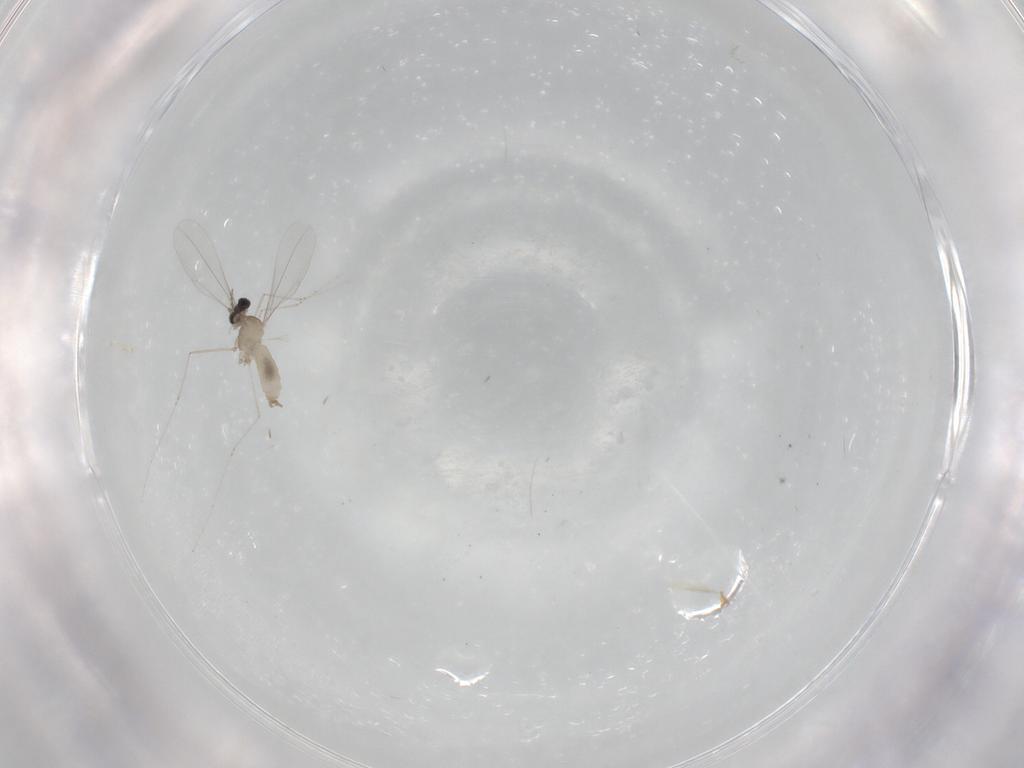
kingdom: Animalia
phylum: Arthropoda
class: Insecta
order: Diptera
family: Cecidomyiidae
